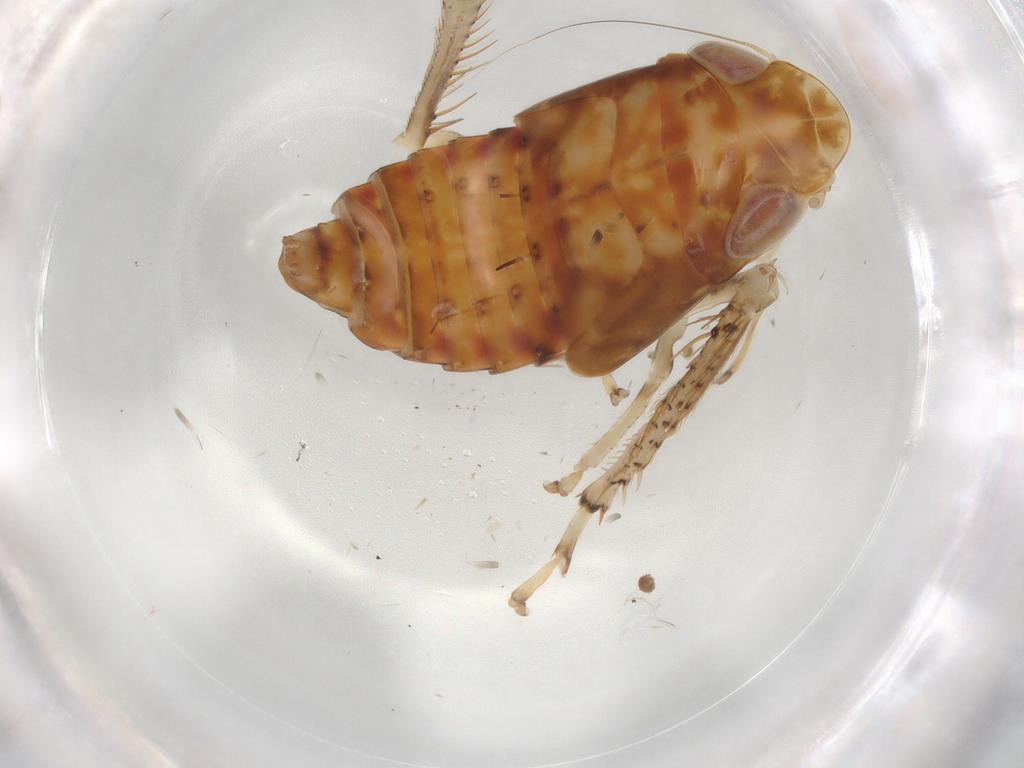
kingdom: Animalia
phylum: Arthropoda
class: Insecta
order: Hemiptera
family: Cicadellidae
